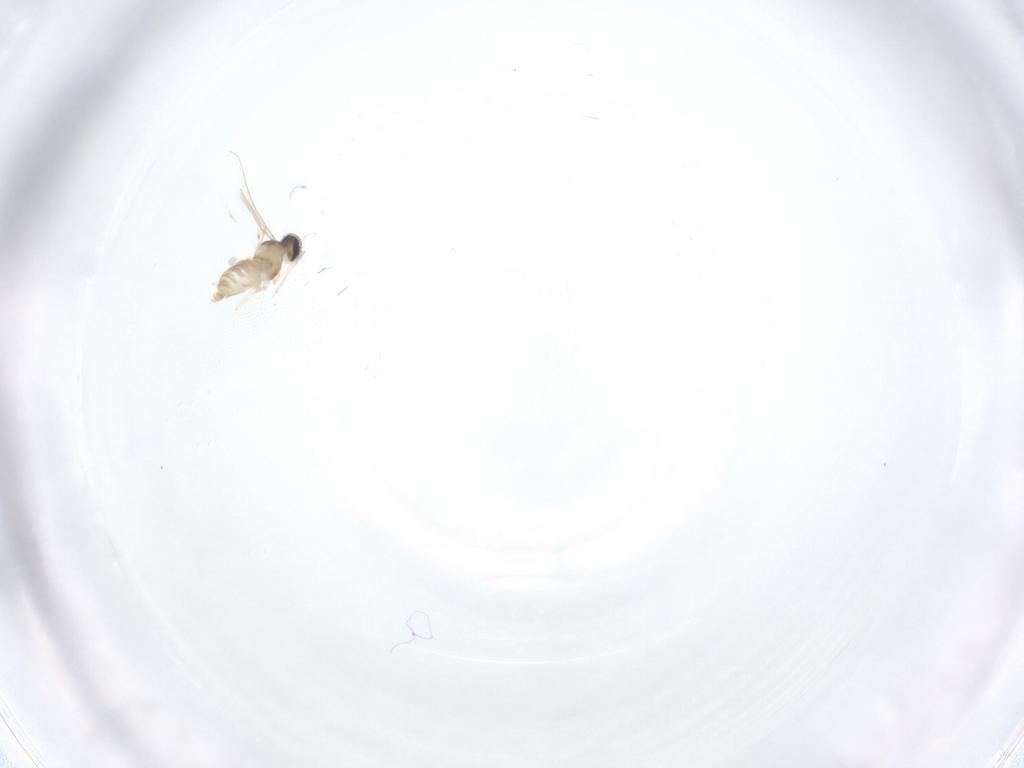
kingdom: Animalia
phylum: Arthropoda
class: Insecta
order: Diptera
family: Cecidomyiidae
